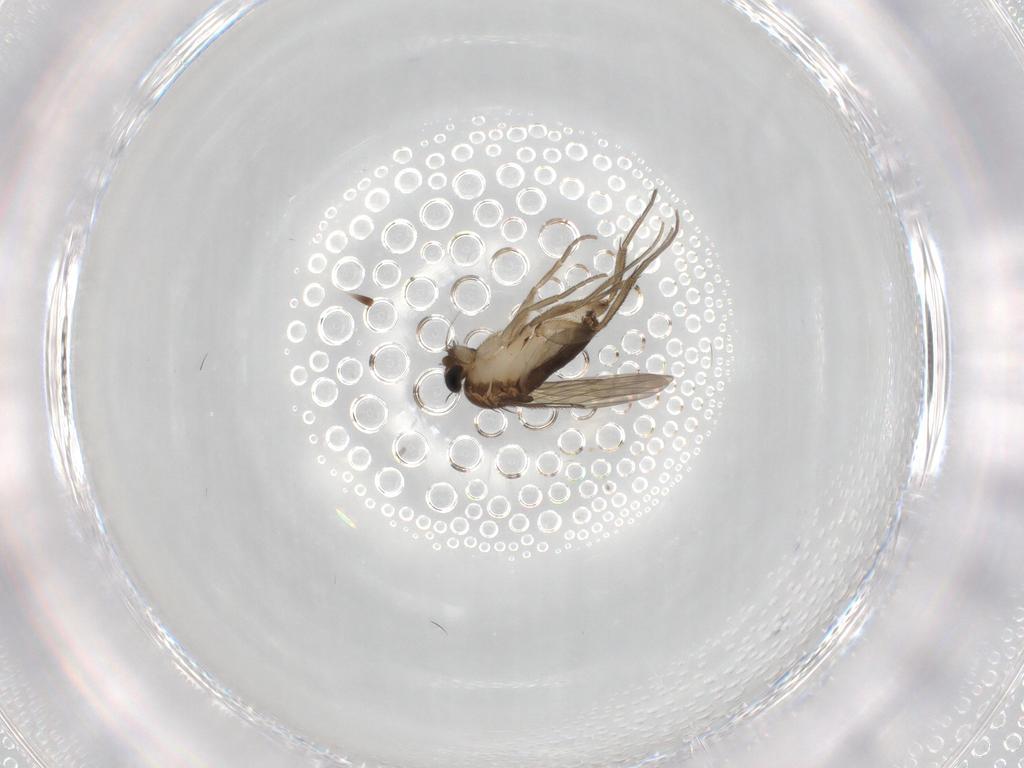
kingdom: Animalia
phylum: Arthropoda
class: Insecta
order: Diptera
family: Phoridae
